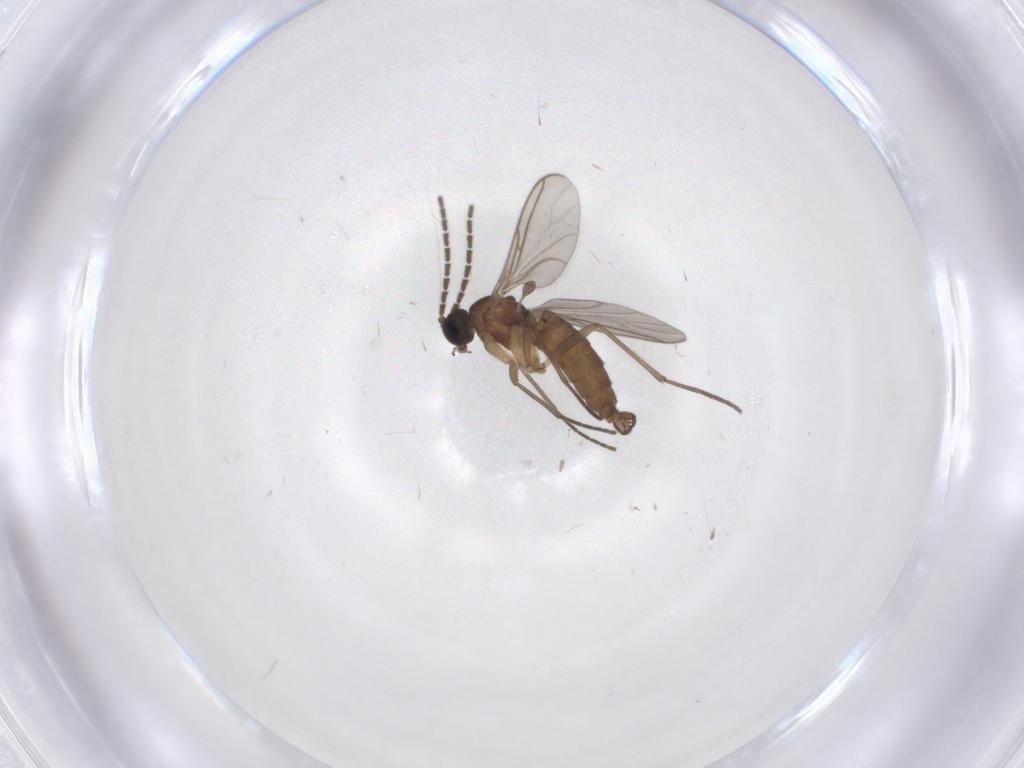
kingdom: Animalia
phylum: Arthropoda
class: Insecta
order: Diptera
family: Sciaridae
